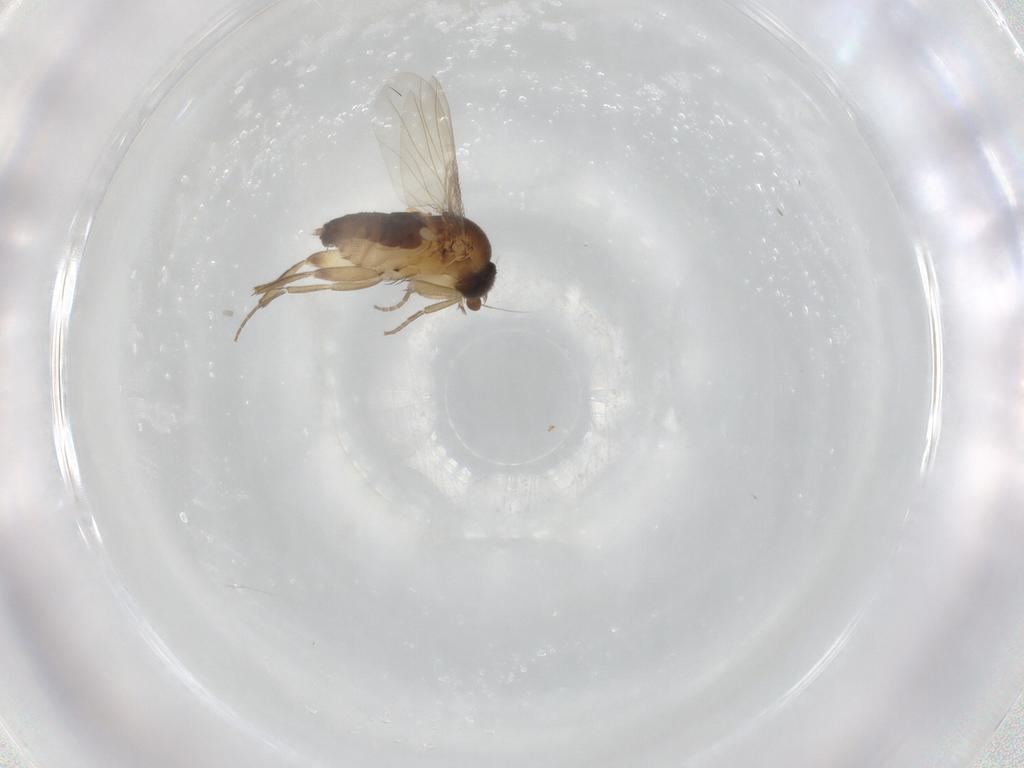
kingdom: Animalia
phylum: Arthropoda
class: Insecta
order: Diptera
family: Phoridae
